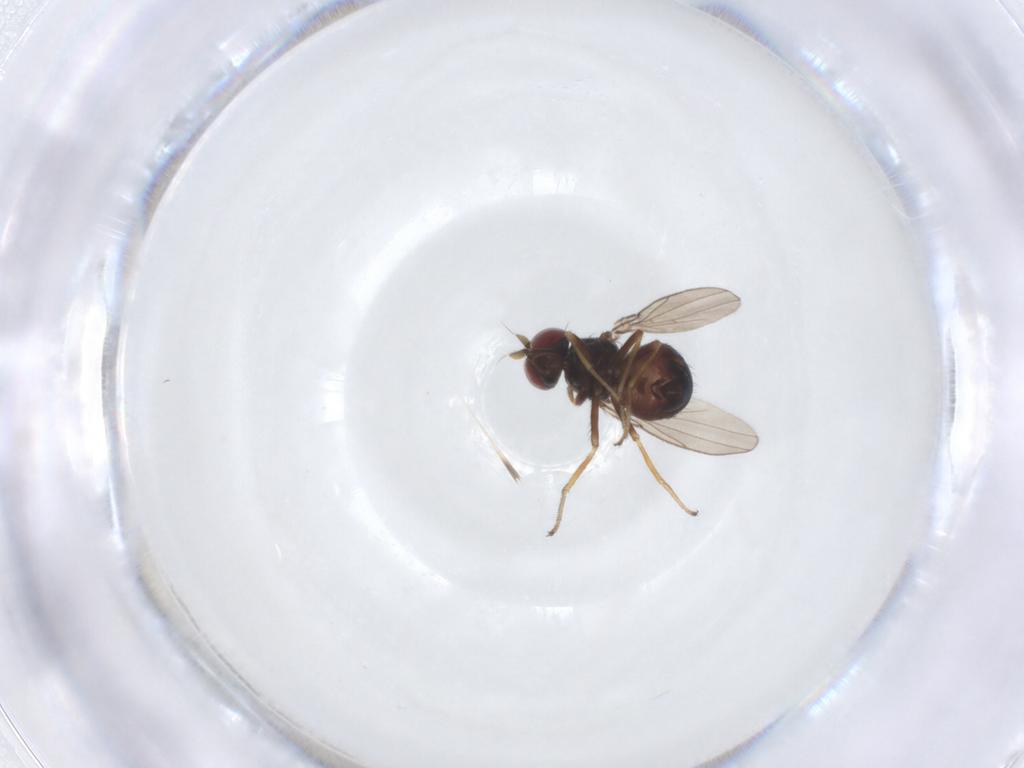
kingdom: Animalia
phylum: Arthropoda
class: Insecta
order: Diptera
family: Ephydridae
